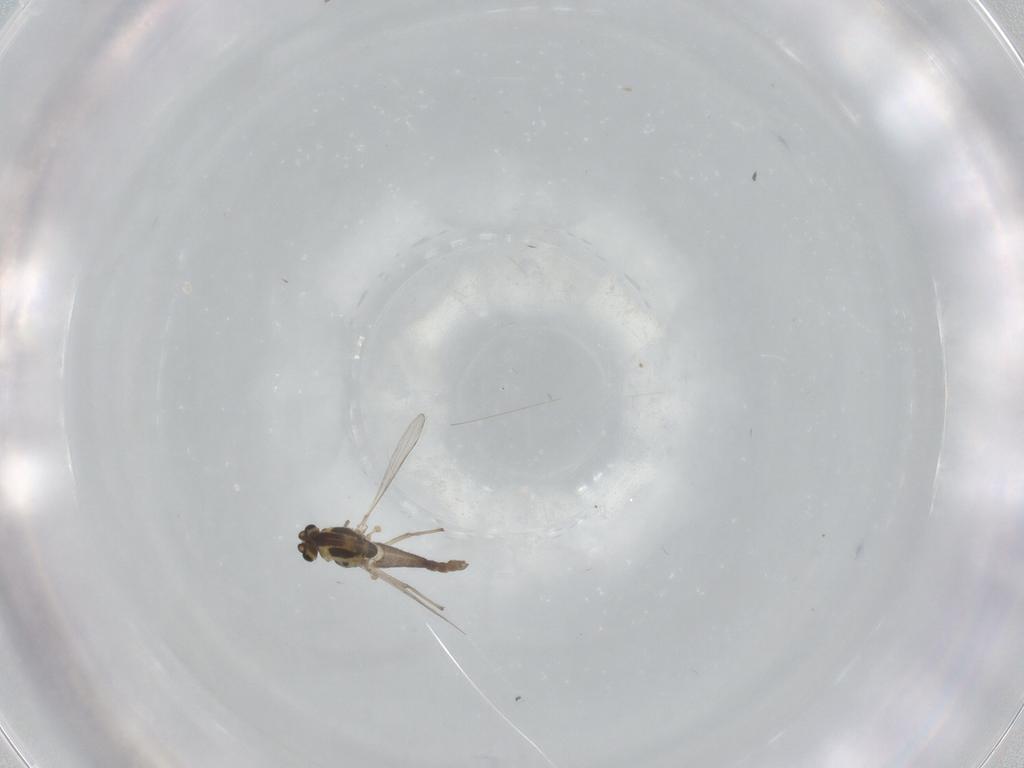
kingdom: Animalia
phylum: Arthropoda
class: Insecta
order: Diptera
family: Chironomidae
